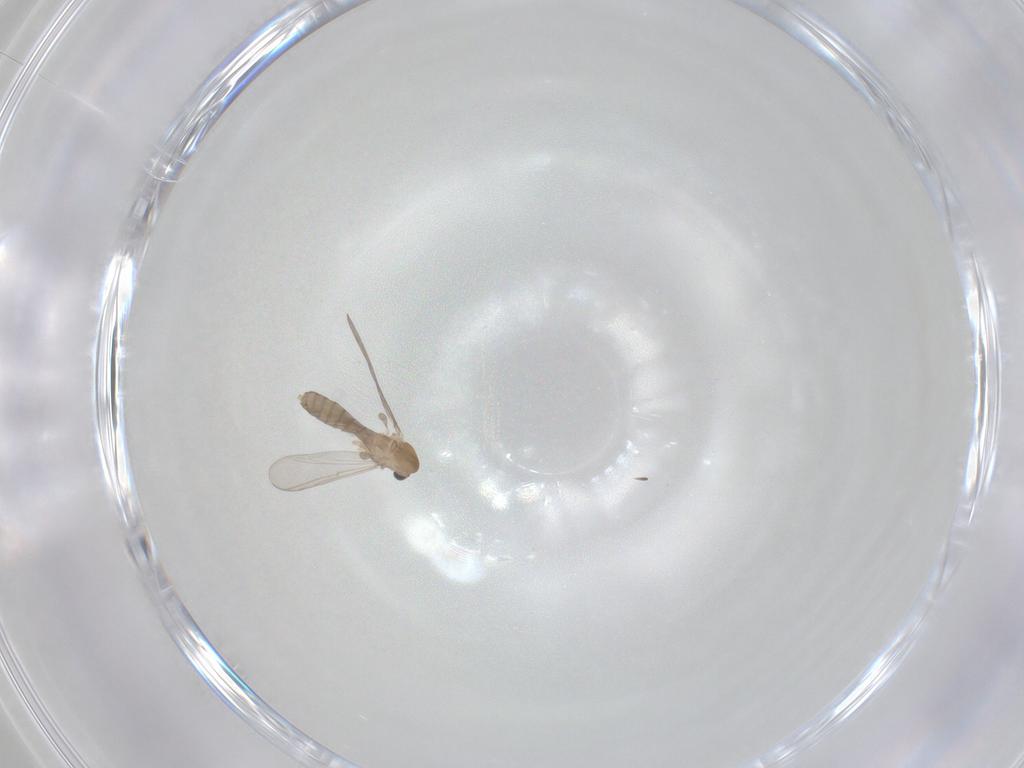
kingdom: Animalia
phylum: Arthropoda
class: Insecta
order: Diptera
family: Chironomidae
